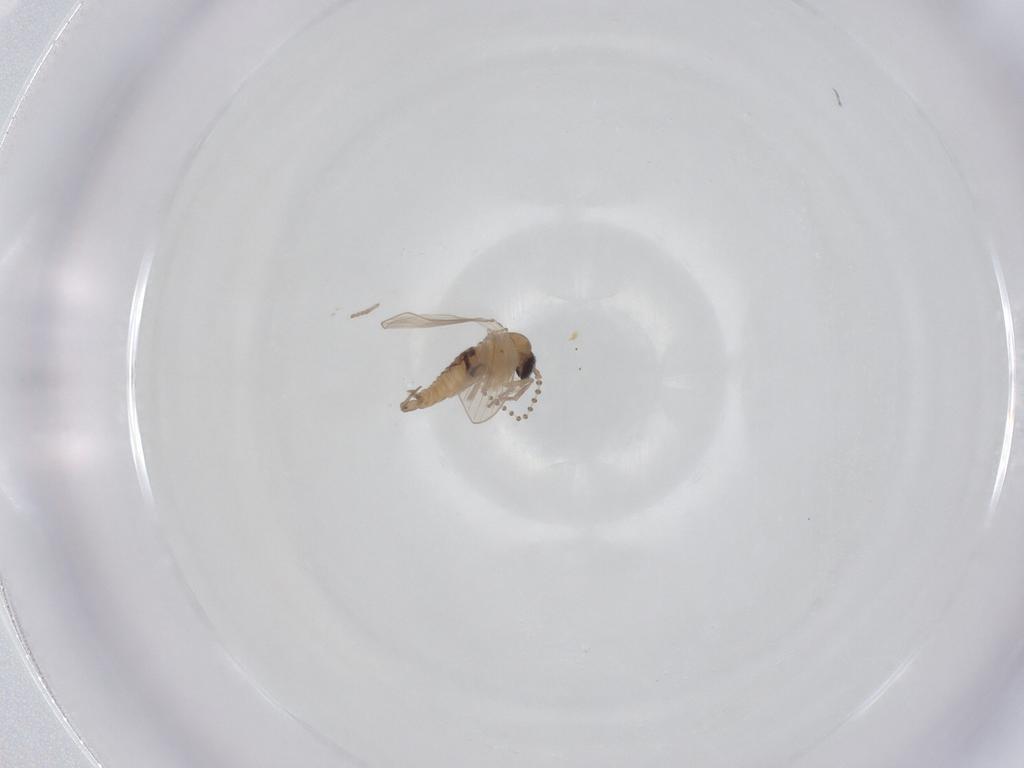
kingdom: Animalia
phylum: Arthropoda
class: Insecta
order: Diptera
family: Psychodidae
